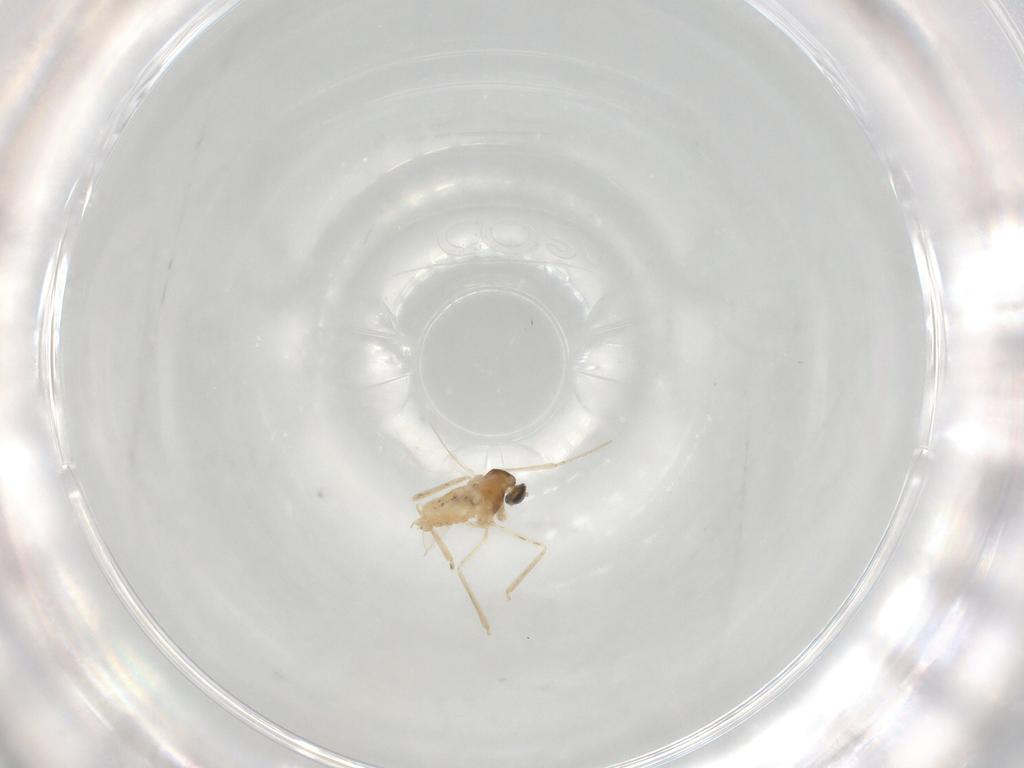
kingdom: Animalia
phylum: Arthropoda
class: Insecta
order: Diptera
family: Cecidomyiidae
